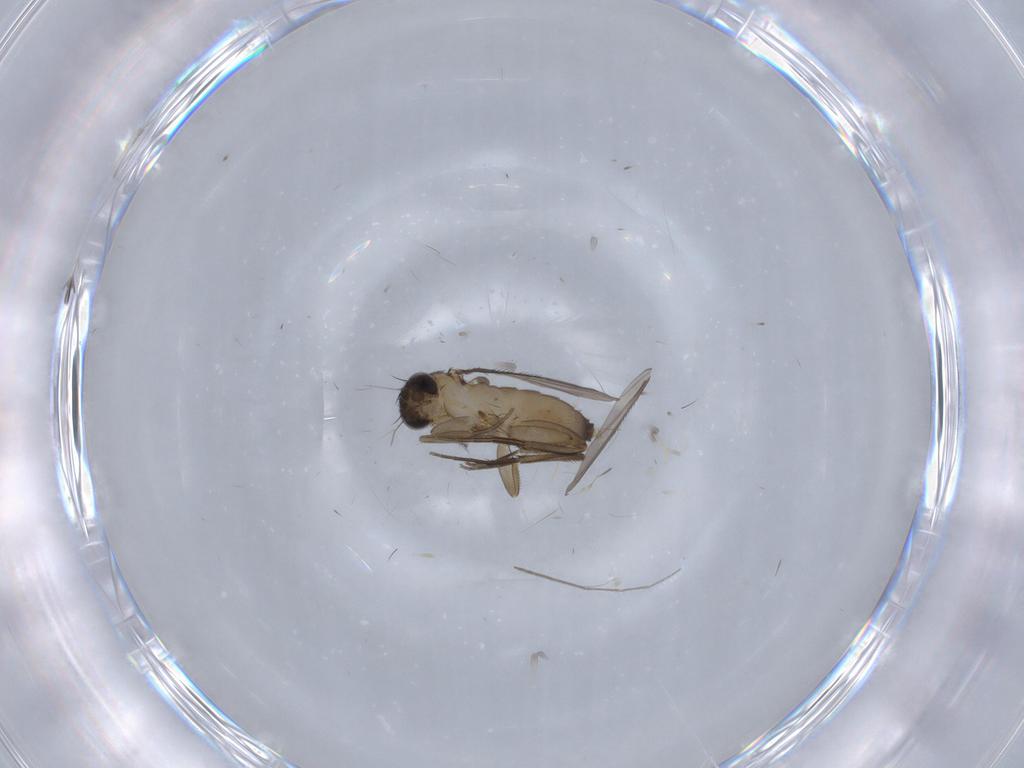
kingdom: Animalia
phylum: Arthropoda
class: Insecta
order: Diptera
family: Phoridae
